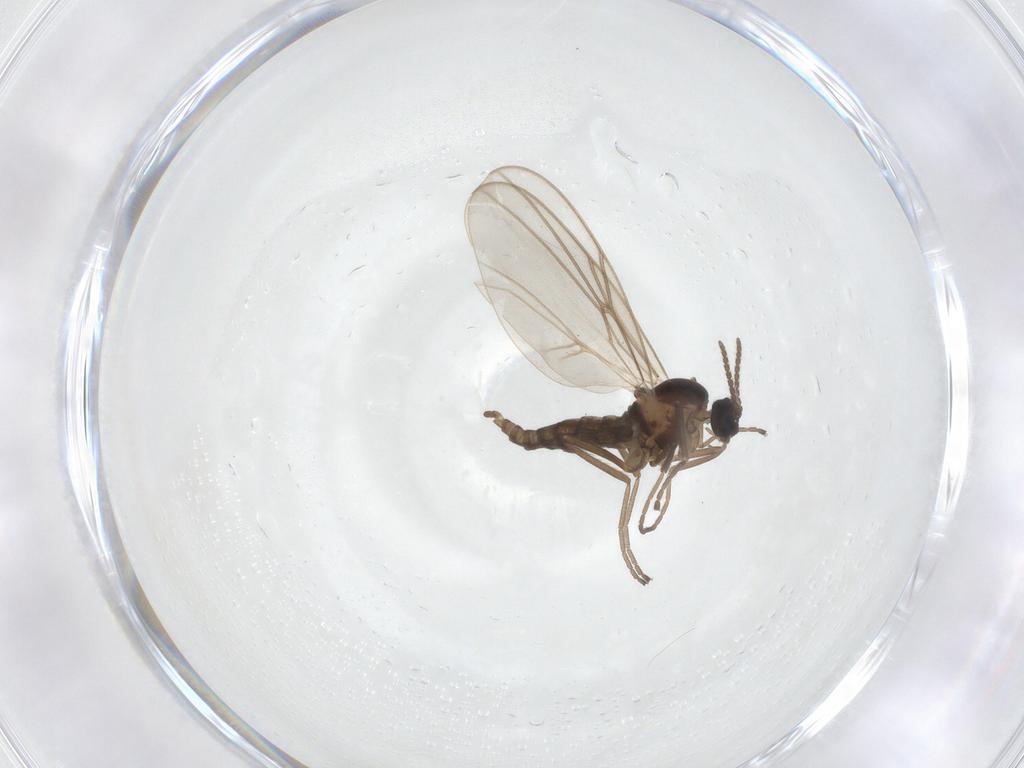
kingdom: Animalia
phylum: Arthropoda
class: Insecta
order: Diptera
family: Cecidomyiidae
